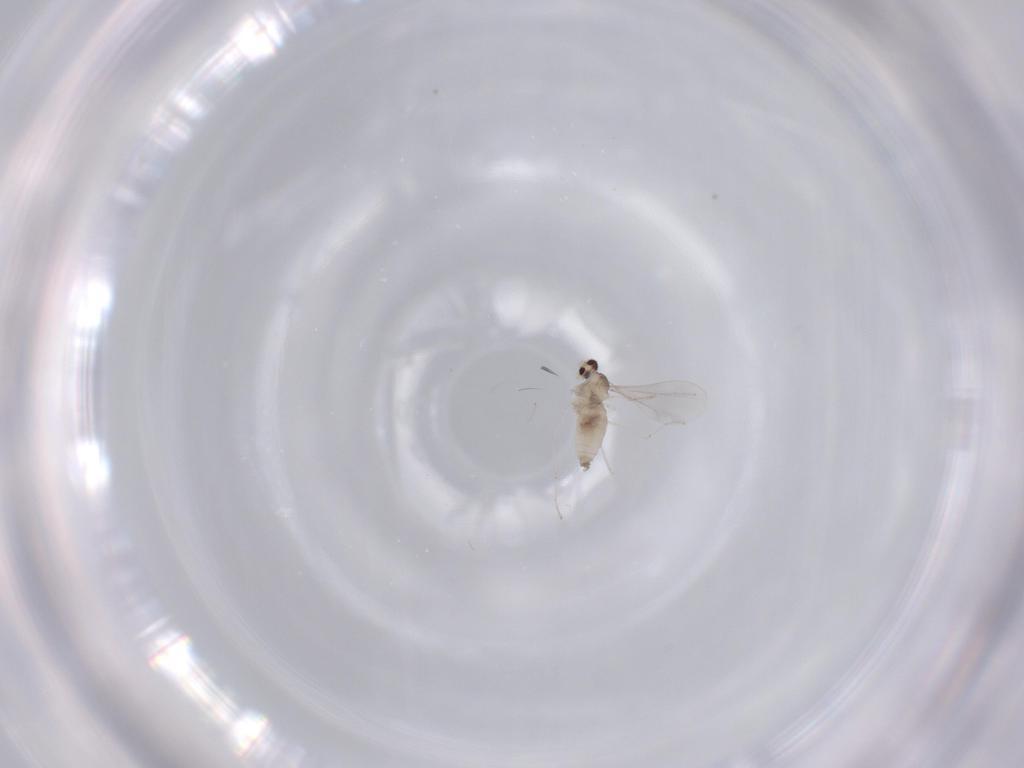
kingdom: Animalia
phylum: Arthropoda
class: Insecta
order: Diptera
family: Cecidomyiidae
